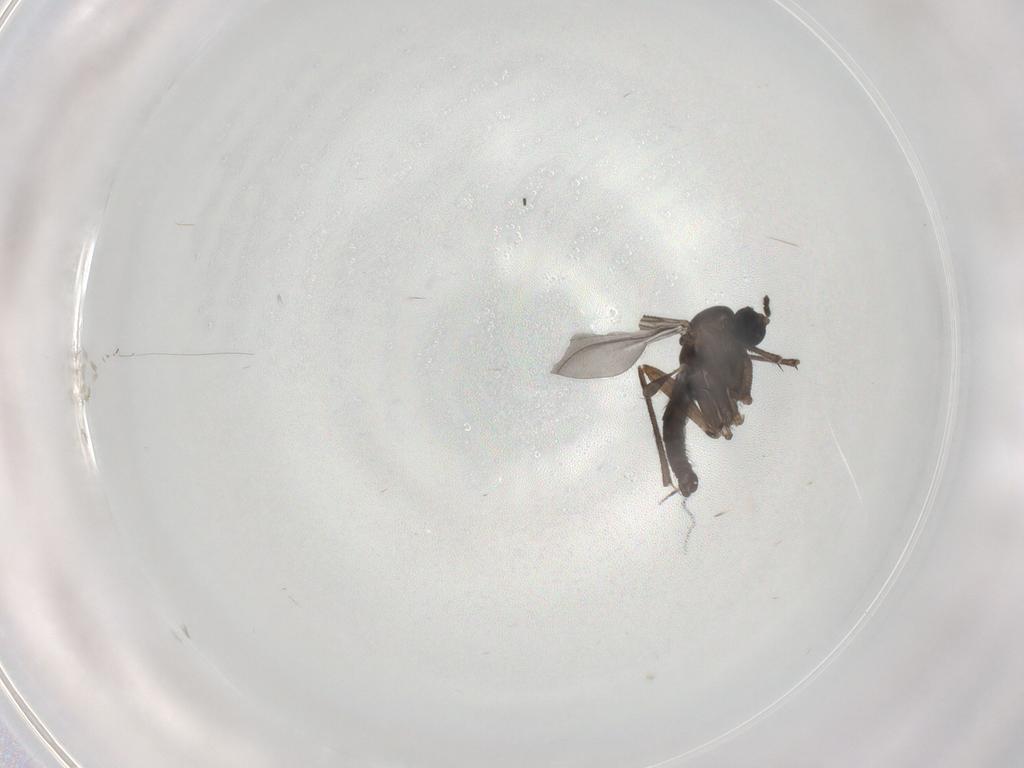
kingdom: Animalia
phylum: Arthropoda
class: Insecta
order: Diptera
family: Sciaridae
